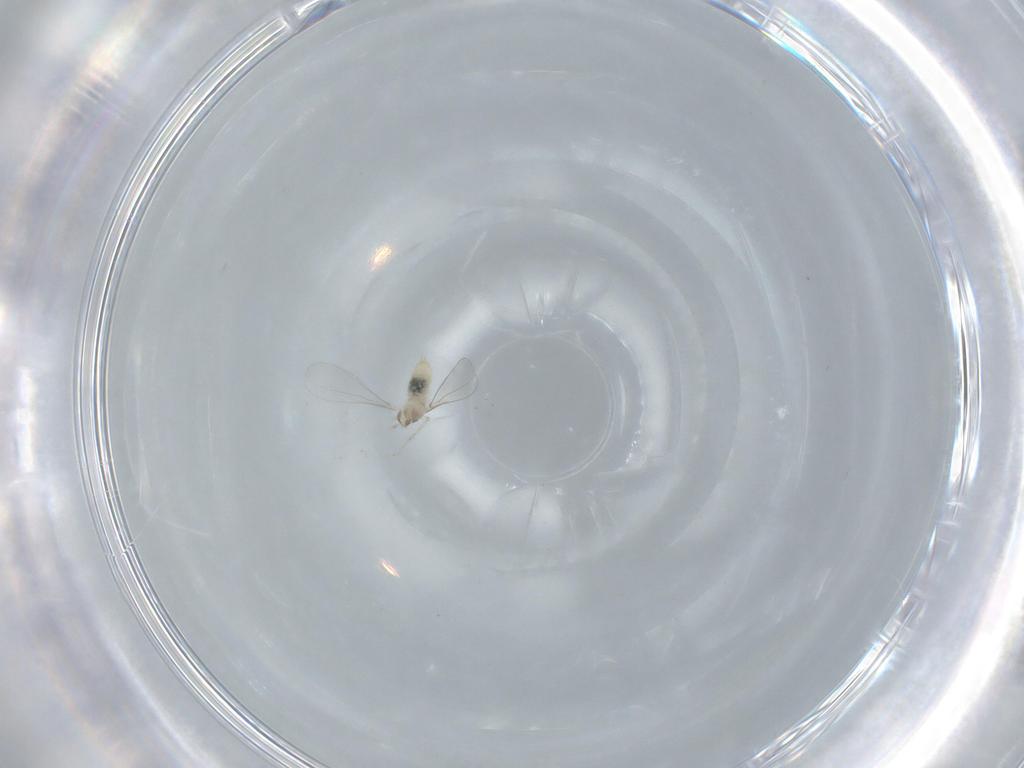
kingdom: Animalia
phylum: Arthropoda
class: Insecta
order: Diptera
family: Cecidomyiidae
